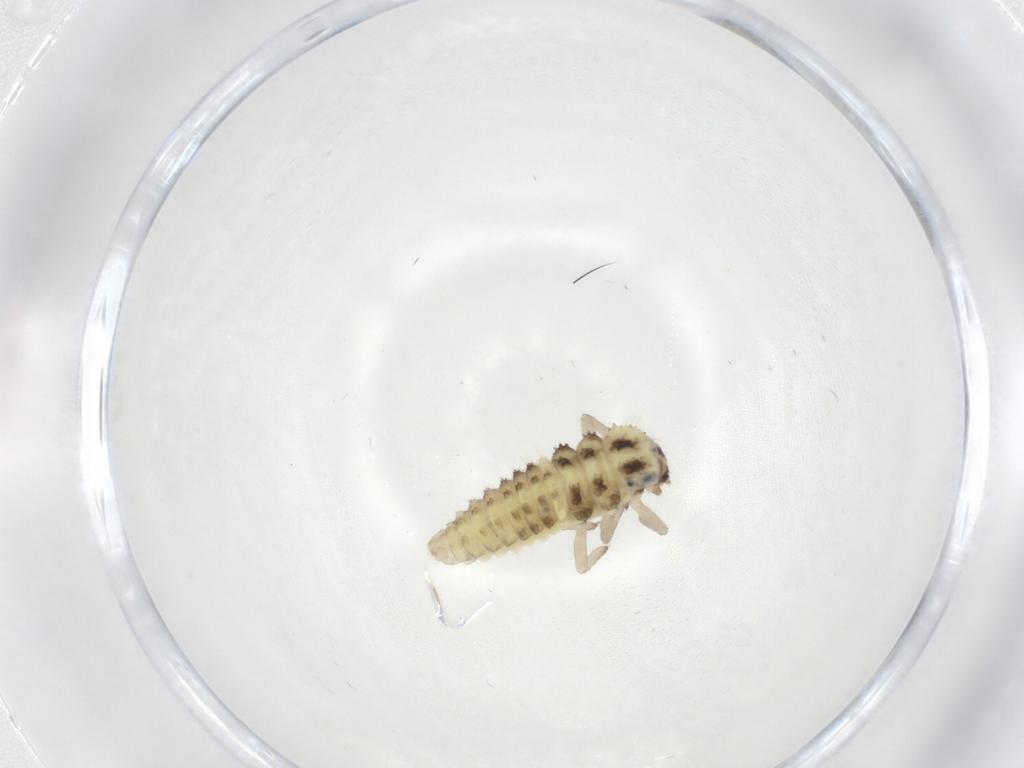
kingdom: Animalia
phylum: Arthropoda
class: Insecta
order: Coleoptera
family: Coccinellidae
